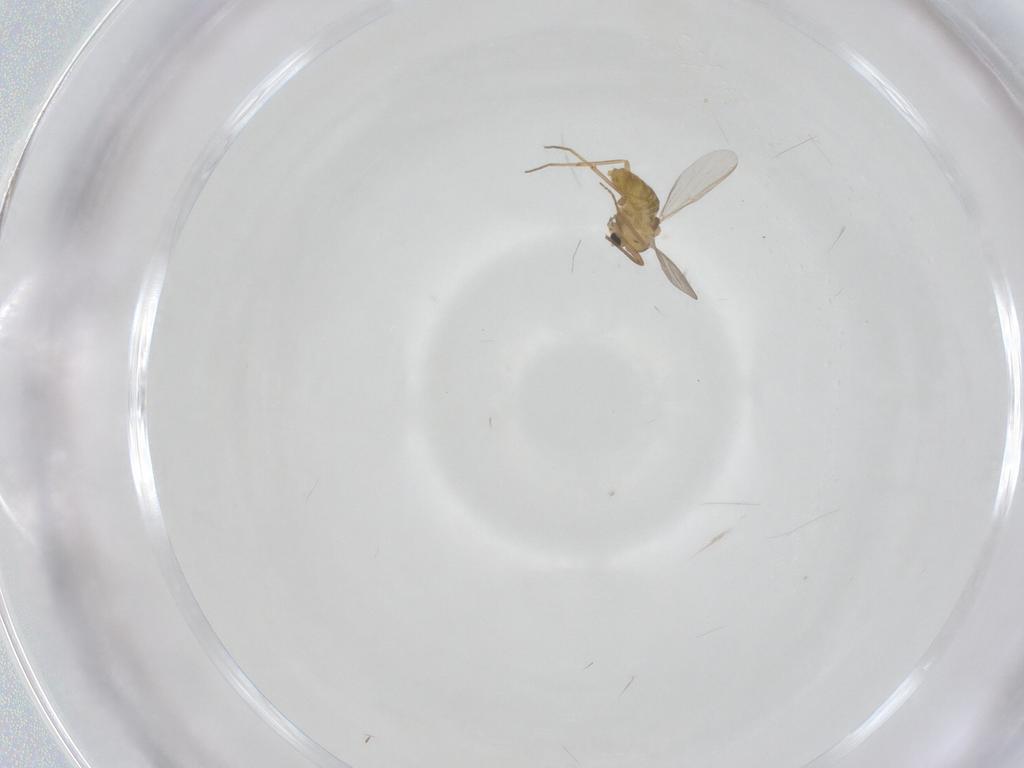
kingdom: Animalia
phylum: Arthropoda
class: Insecta
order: Diptera
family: Chironomidae
